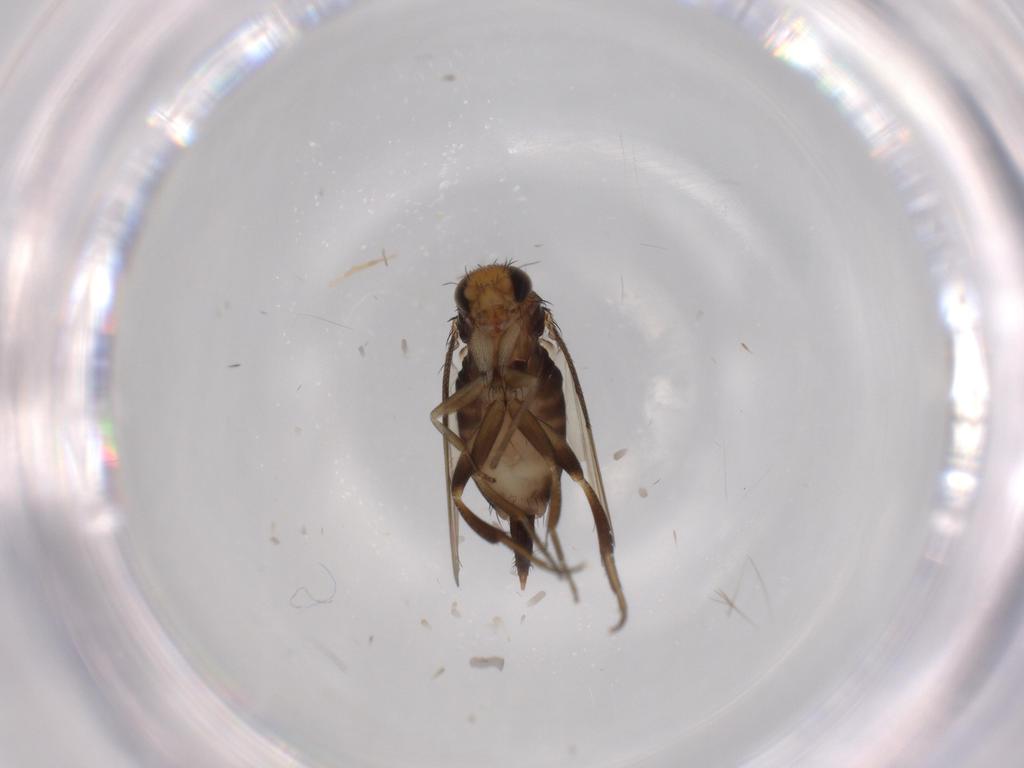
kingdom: Animalia
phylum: Arthropoda
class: Insecta
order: Diptera
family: Phoridae
